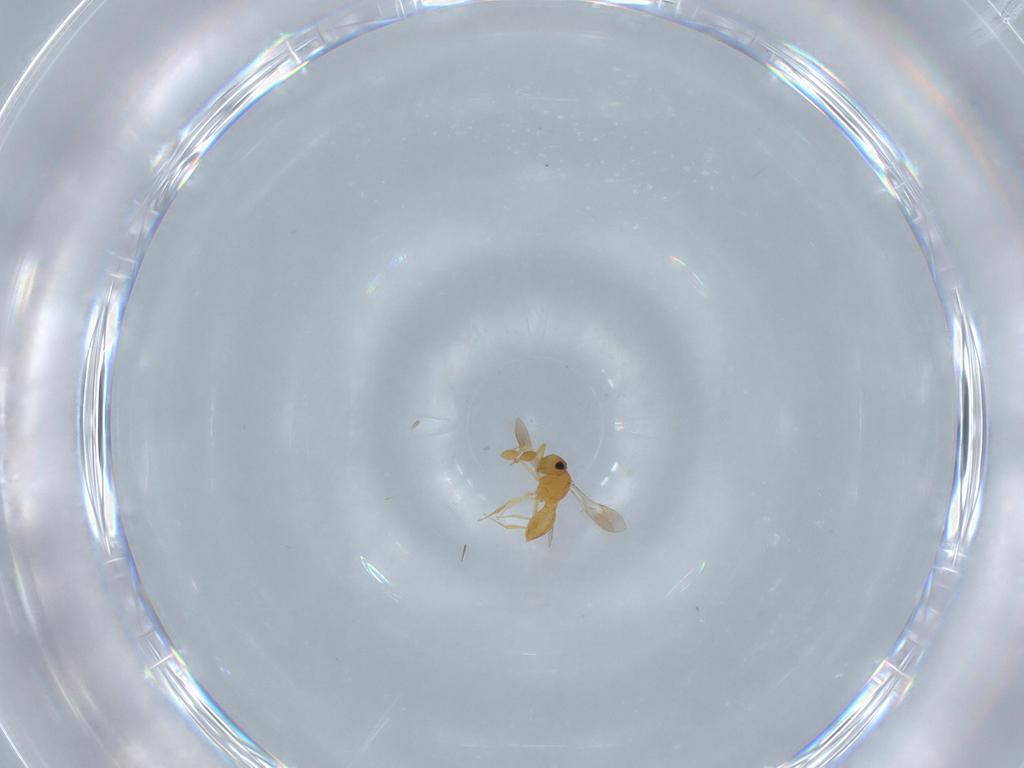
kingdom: Animalia
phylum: Arthropoda
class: Insecta
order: Hymenoptera
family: Scelionidae
